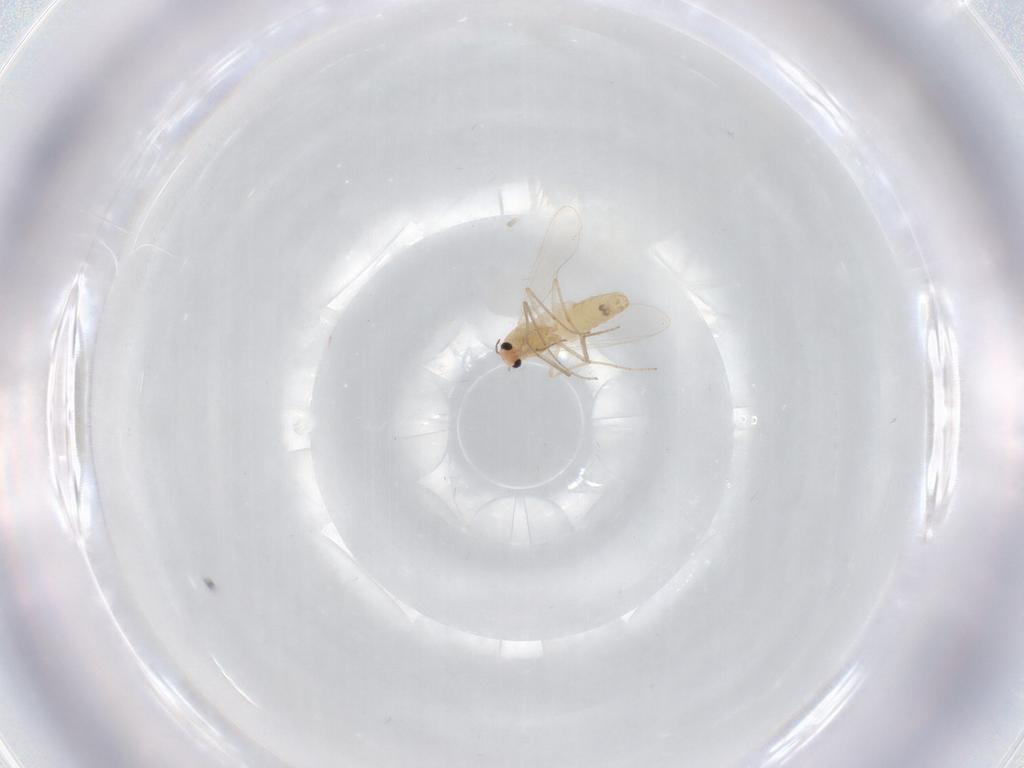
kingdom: Animalia
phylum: Arthropoda
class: Insecta
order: Diptera
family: Chironomidae
